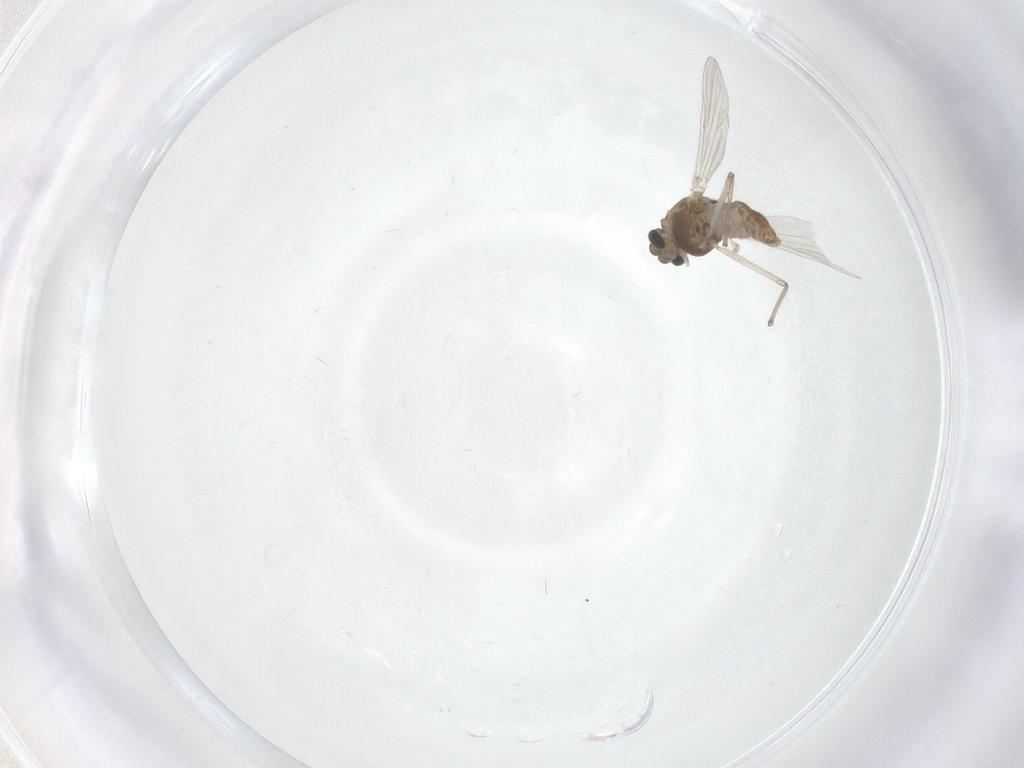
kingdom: Animalia
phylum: Arthropoda
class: Insecta
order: Diptera
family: Chironomidae
